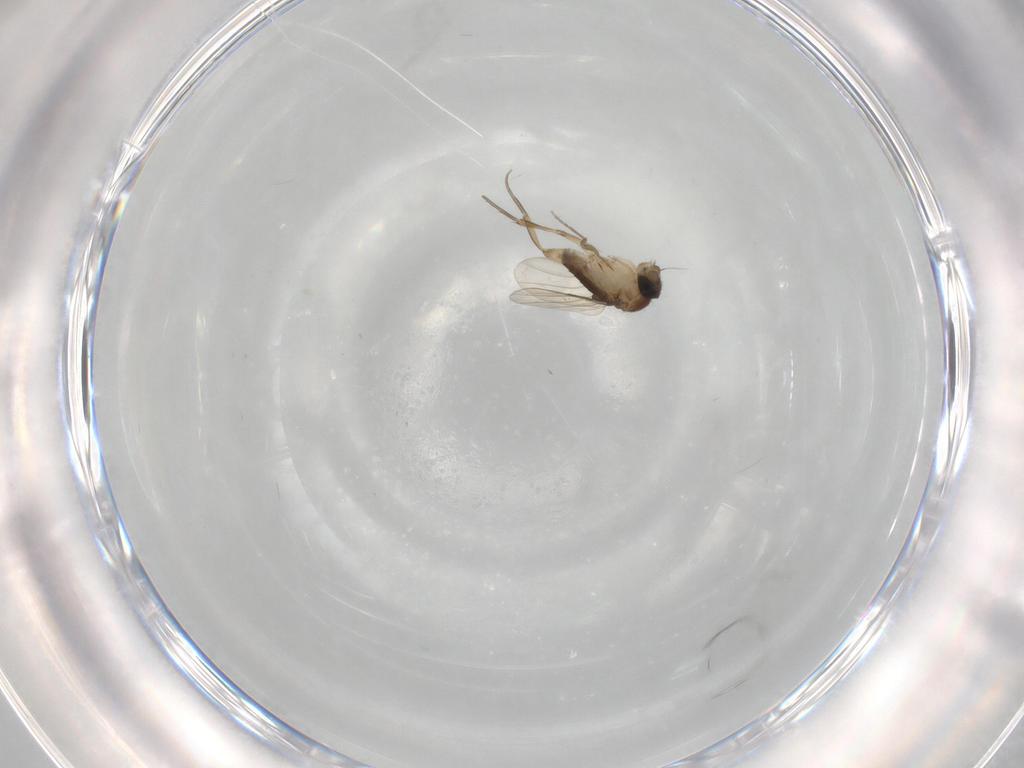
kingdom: Animalia
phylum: Arthropoda
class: Insecta
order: Diptera
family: Phoridae
